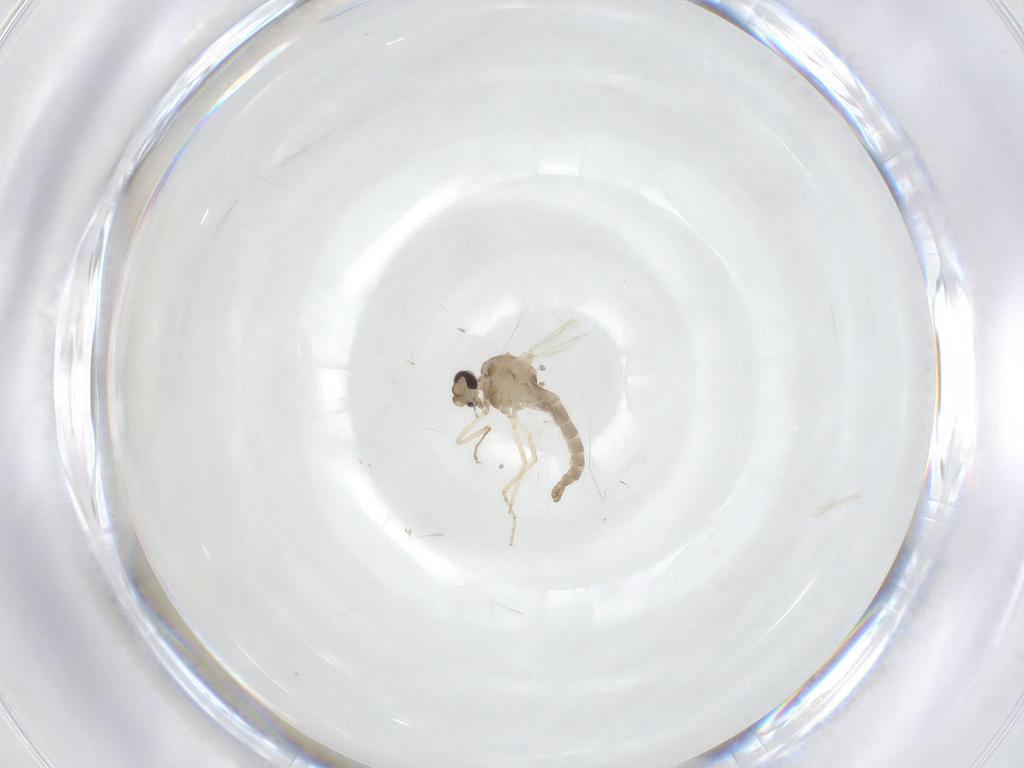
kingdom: Animalia
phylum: Arthropoda
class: Insecta
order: Diptera
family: Ceratopogonidae
